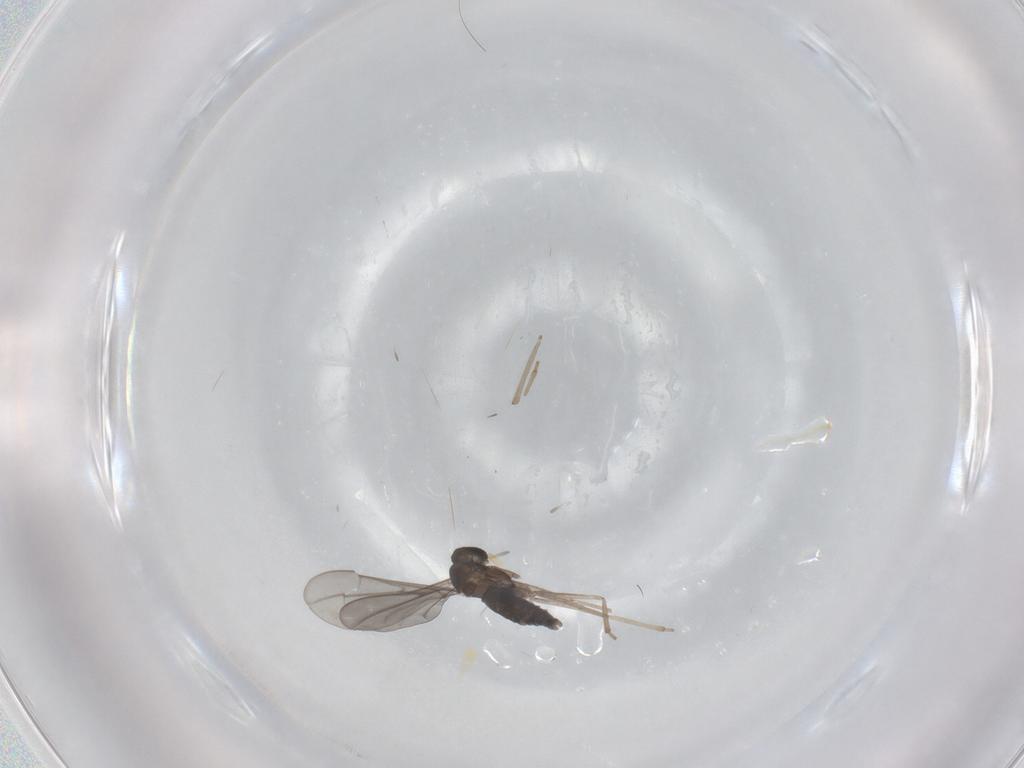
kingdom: Animalia
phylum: Arthropoda
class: Insecta
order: Diptera
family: Cecidomyiidae
